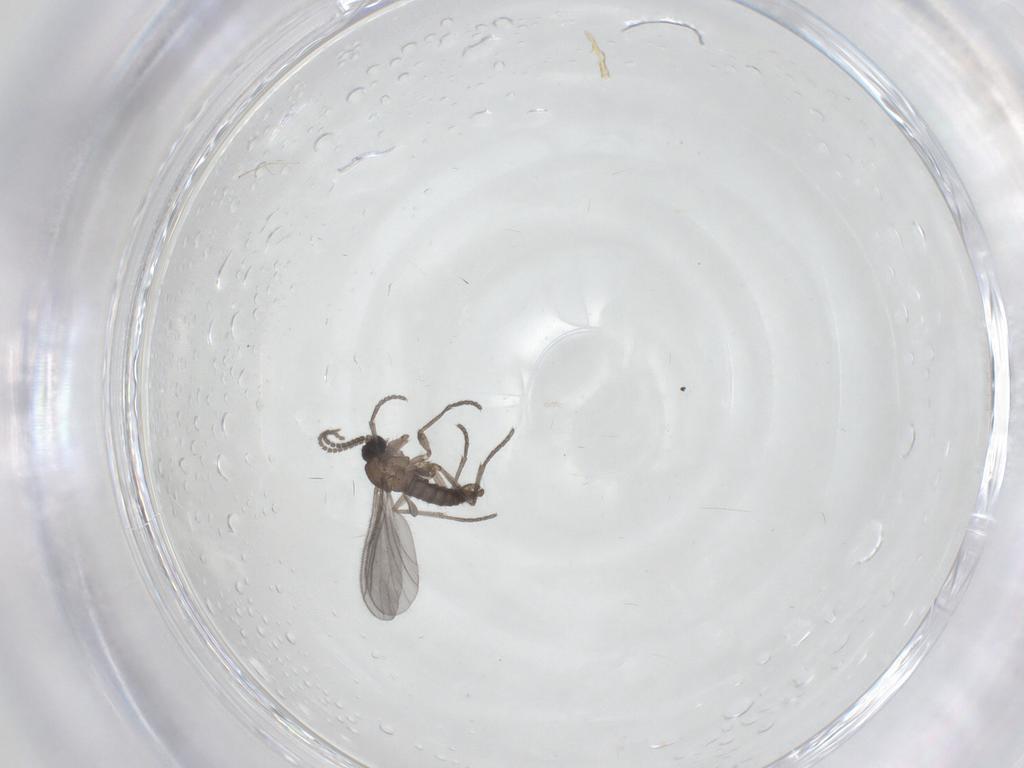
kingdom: Animalia
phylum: Arthropoda
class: Insecta
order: Diptera
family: Sciaridae
